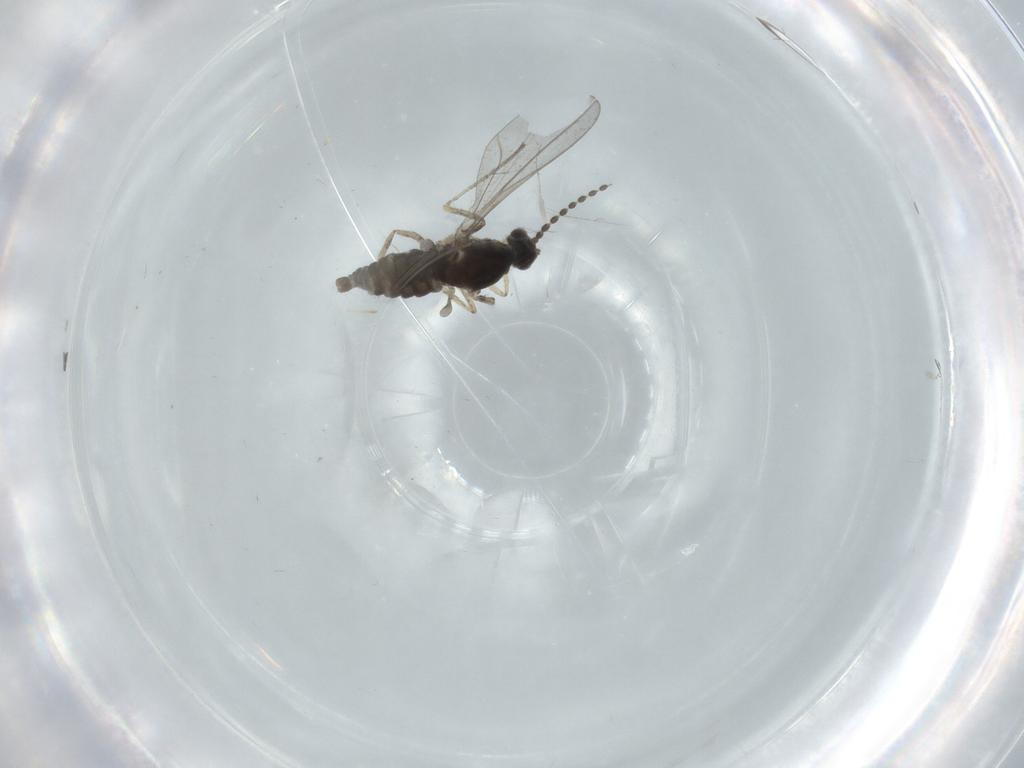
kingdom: Animalia
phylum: Arthropoda
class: Insecta
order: Diptera
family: Cecidomyiidae
